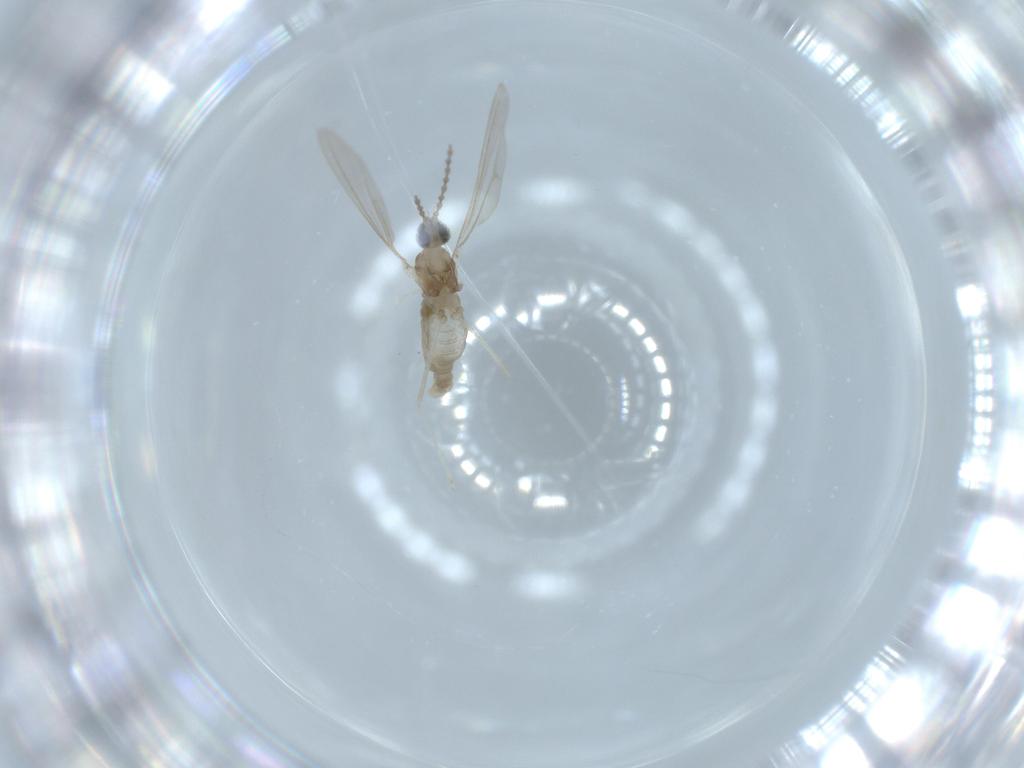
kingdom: Animalia
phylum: Arthropoda
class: Insecta
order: Diptera
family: Cecidomyiidae
